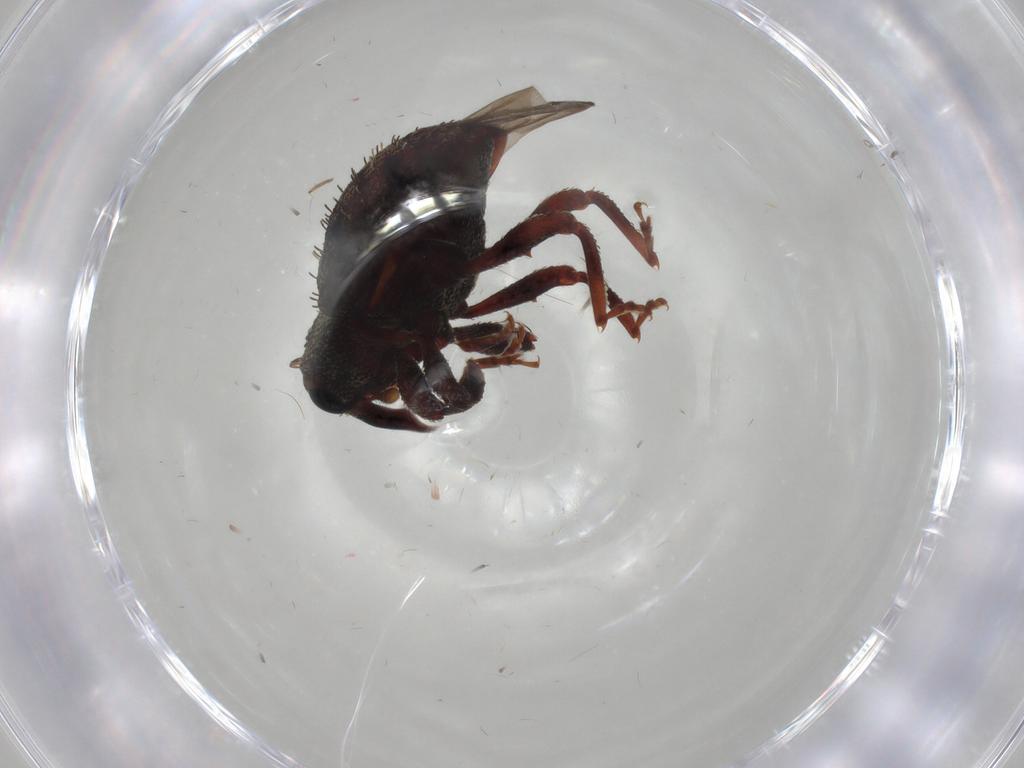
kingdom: Animalia
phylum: Arthropoda
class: Insecta
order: Coleoptera
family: Curculionidae
